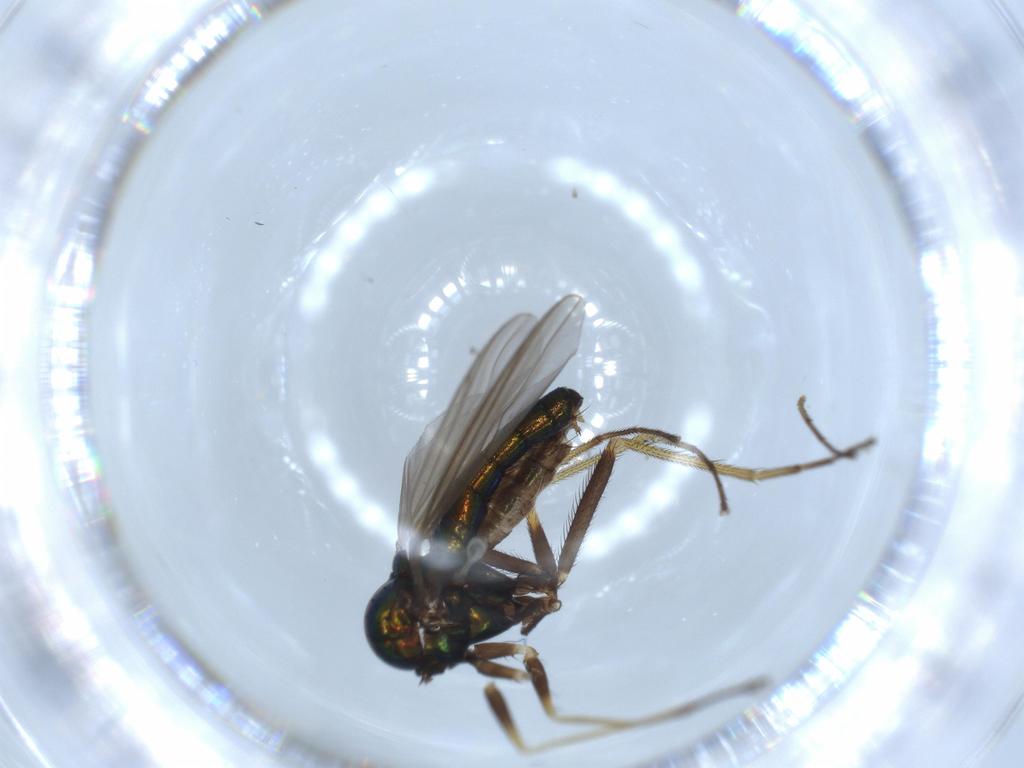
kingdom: Animalia
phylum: Arthropoda
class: Insecta
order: Diptera
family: Dolichopodidae
